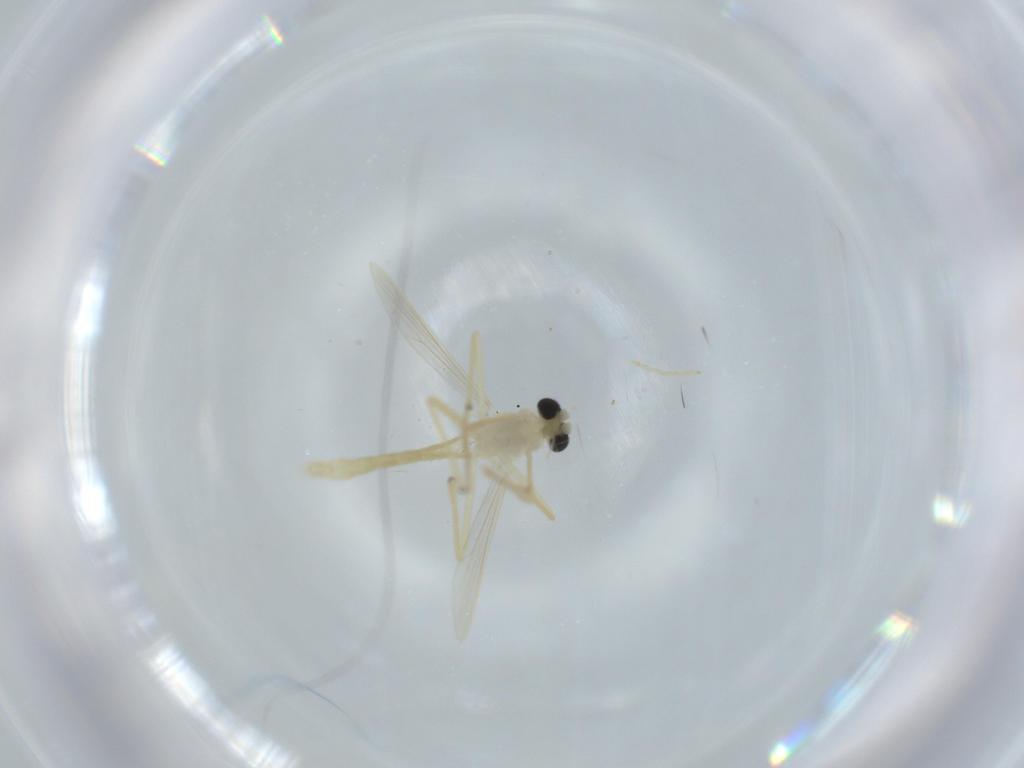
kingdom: Animalia
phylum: Arthropoda
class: Insecta
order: Diptera
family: Chironomidae
